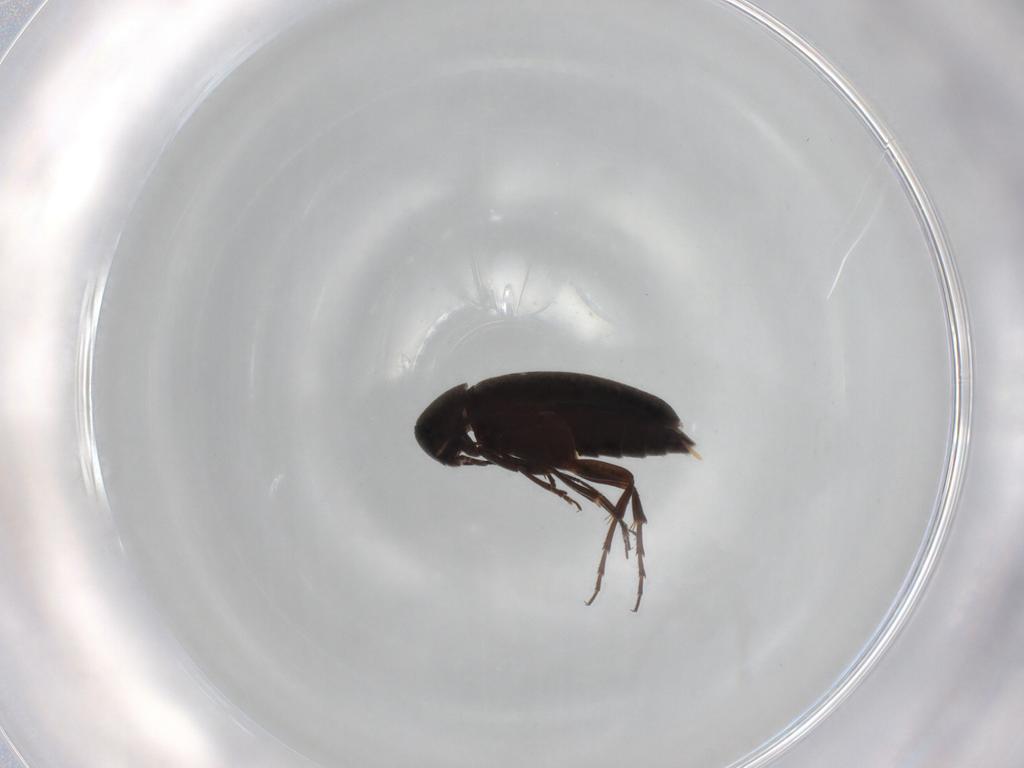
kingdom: Animalia
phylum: Arthropoda
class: Insecta
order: Coleoptera
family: Scraptiidae
